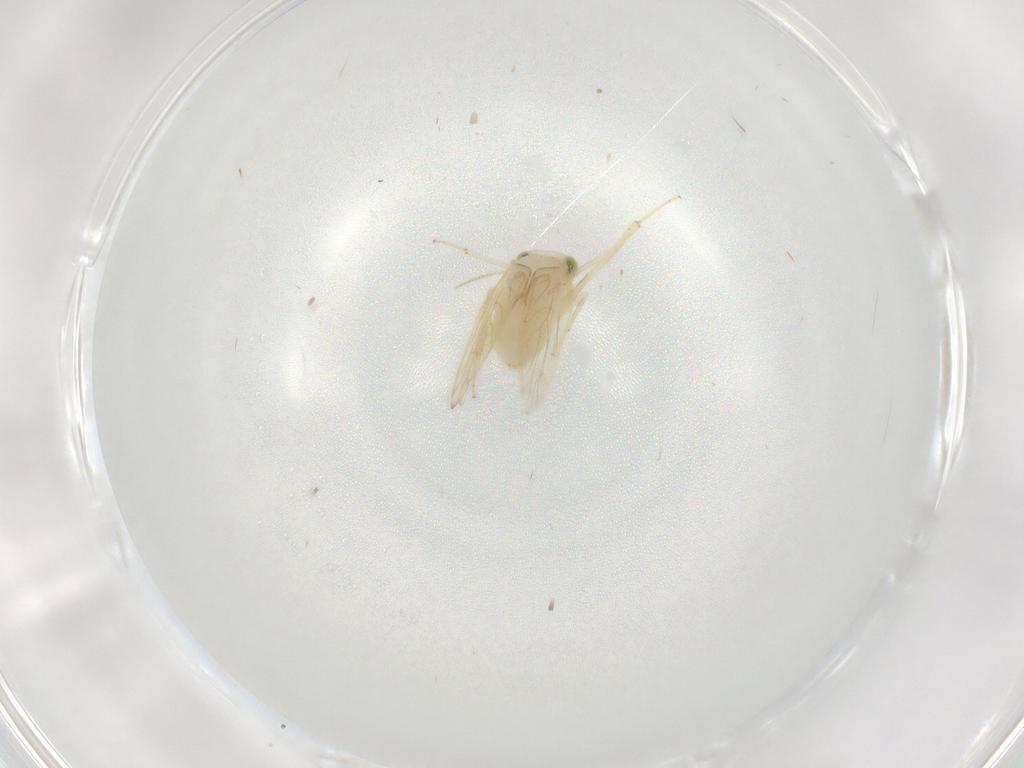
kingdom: Animalia
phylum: Arthropoda
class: Insecta
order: Psocodea
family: Lepidopsocidae
